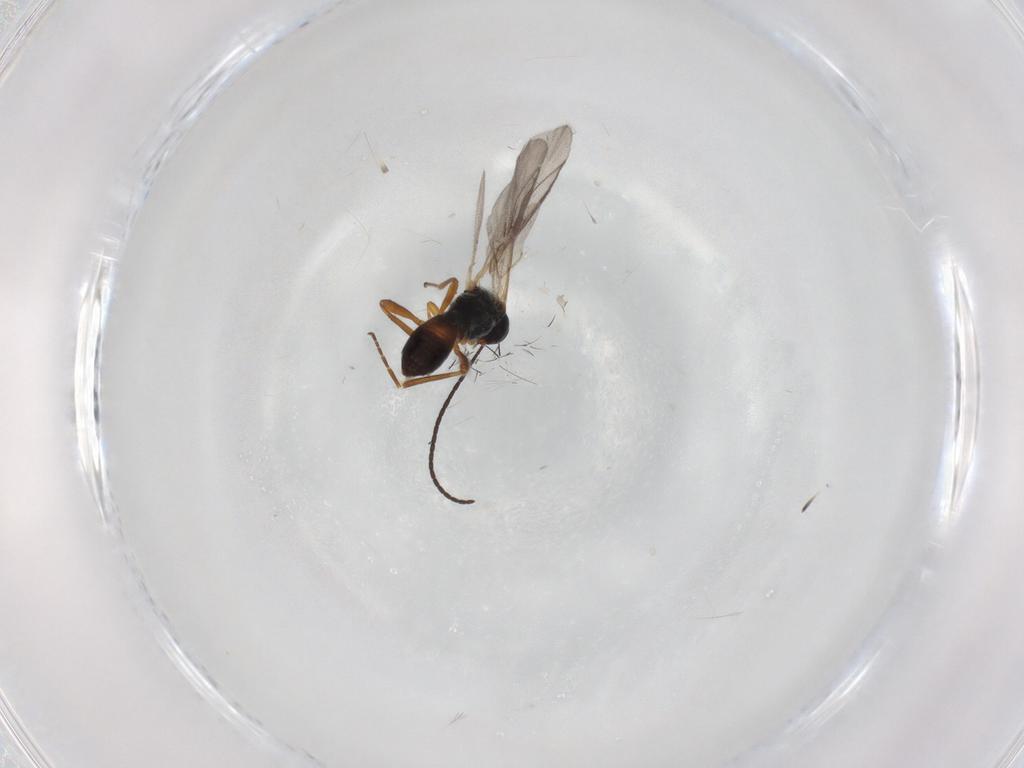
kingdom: Animalia
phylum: Arthropoda
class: Insecta
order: Hymenoptera
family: Braconidae
